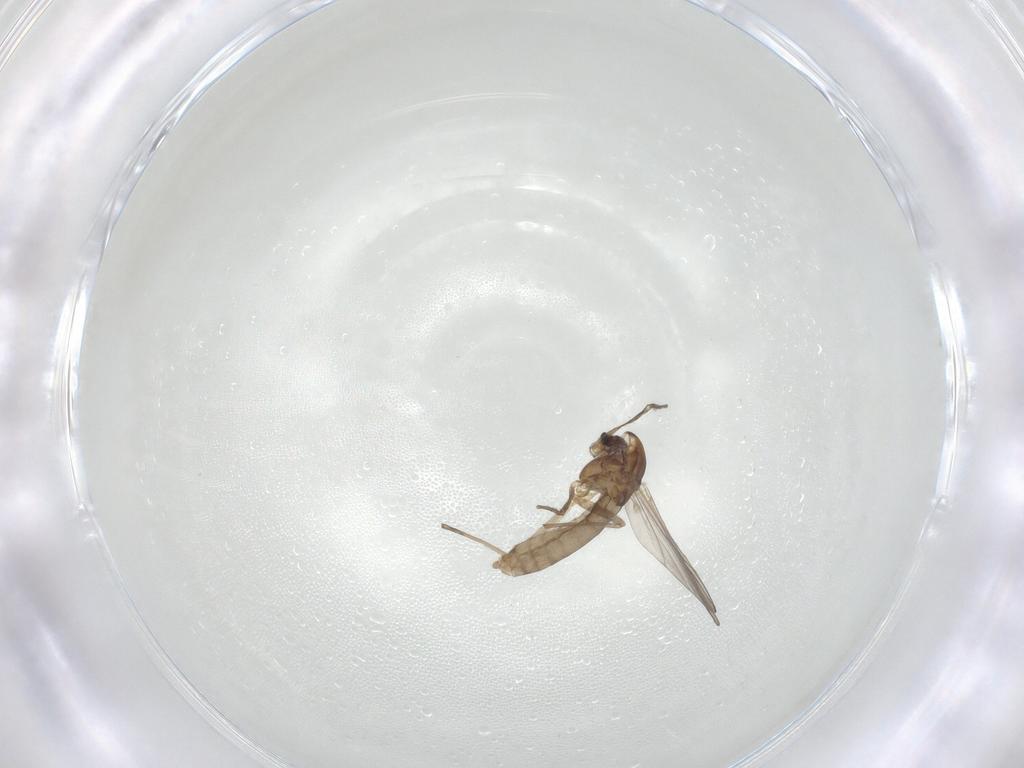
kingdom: Animalia
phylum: Arthropoda
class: Insecta
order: Diptera
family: Chironomidae
